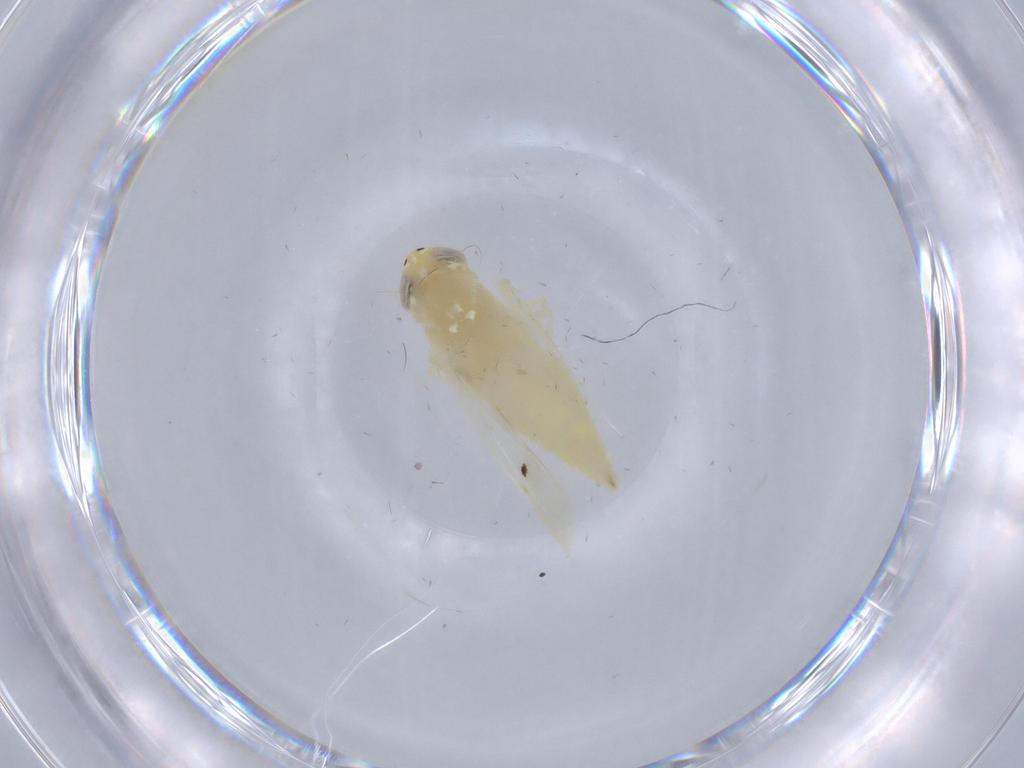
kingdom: Animalia
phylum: Arthropoda
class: Insecta
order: Hemiptera
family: Cicadellidae
